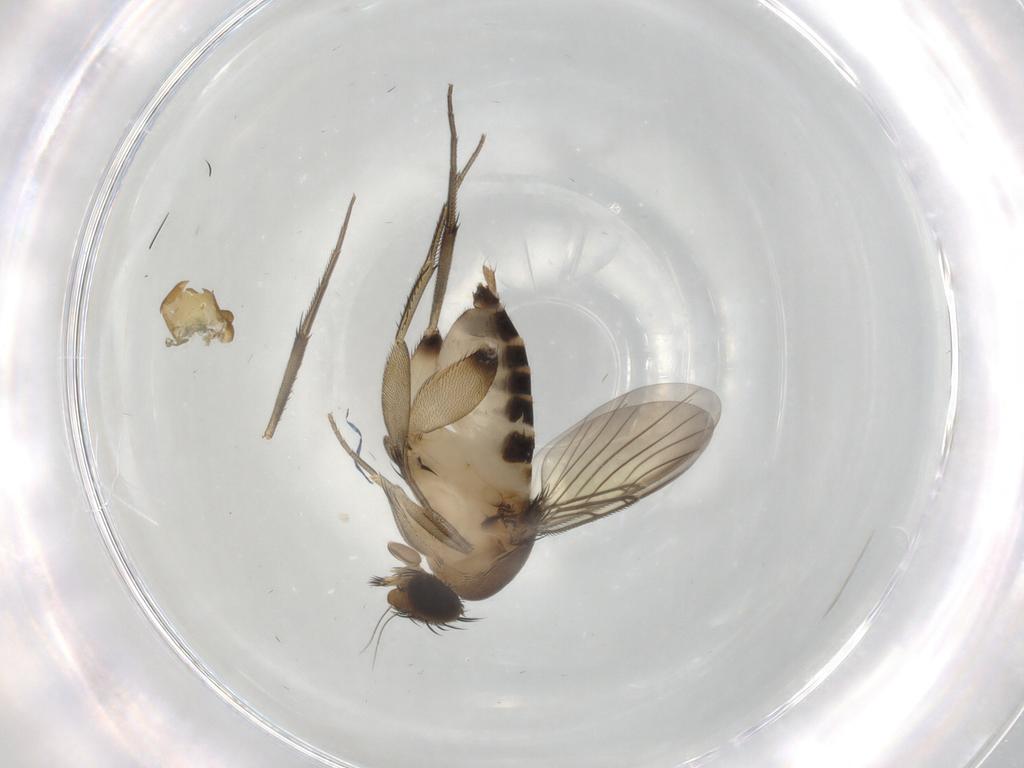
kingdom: Animalia
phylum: Arthropoda
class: Insecta
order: Diptera
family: Phoridae
